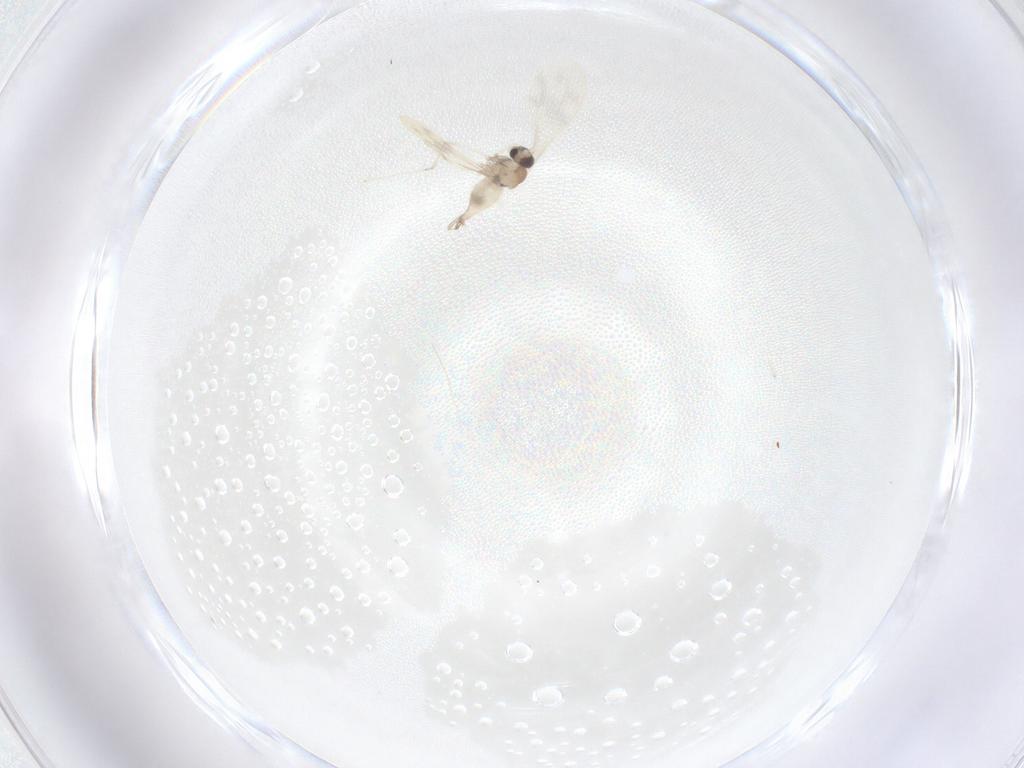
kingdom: Animalia
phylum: Arthropoda
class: Insecta
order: Diptera
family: Cecidomyiidae
